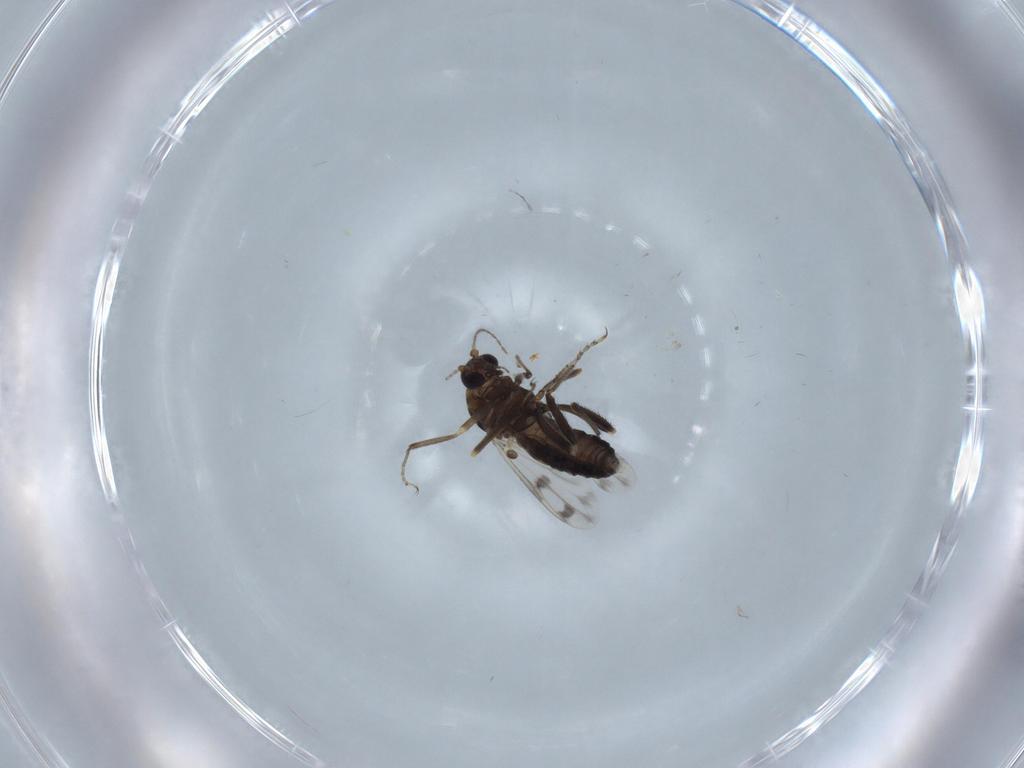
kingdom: Animalia
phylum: Arthropoda
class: Insecta
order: Diptera
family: Ceratopogonidae
